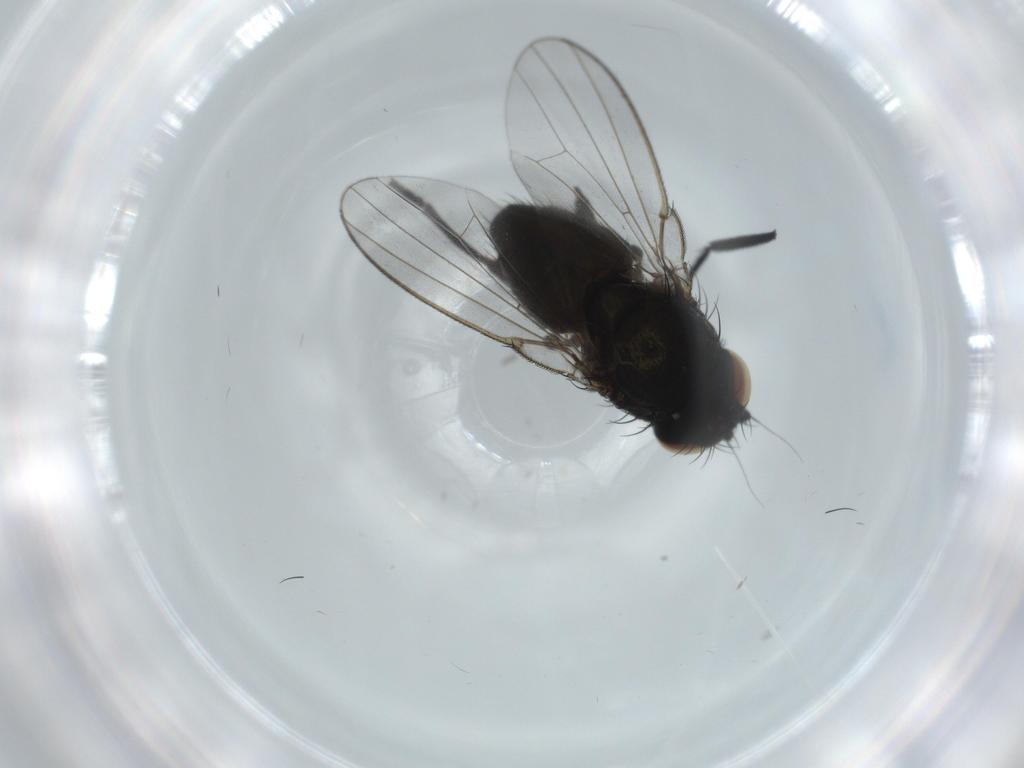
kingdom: Animalia
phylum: Arthropoda
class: Insecta
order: Diptera
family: Milichiidae
